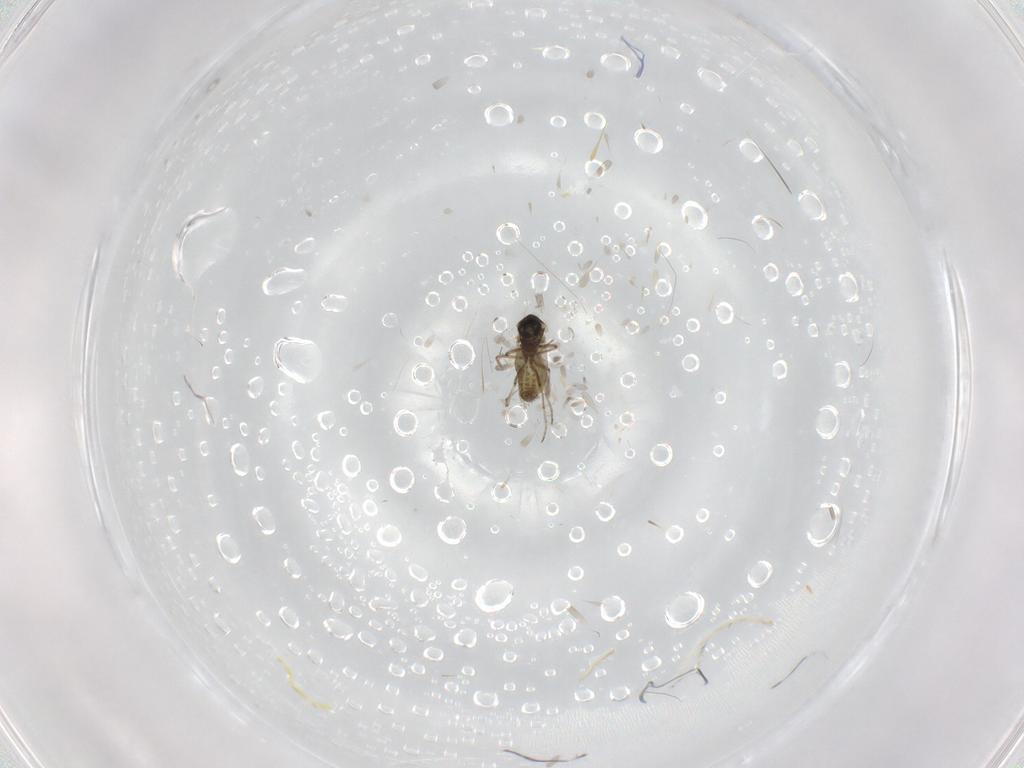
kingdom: Animalia
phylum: Arthropoda
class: Insecta
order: Diptera
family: Ceratopogonidae
